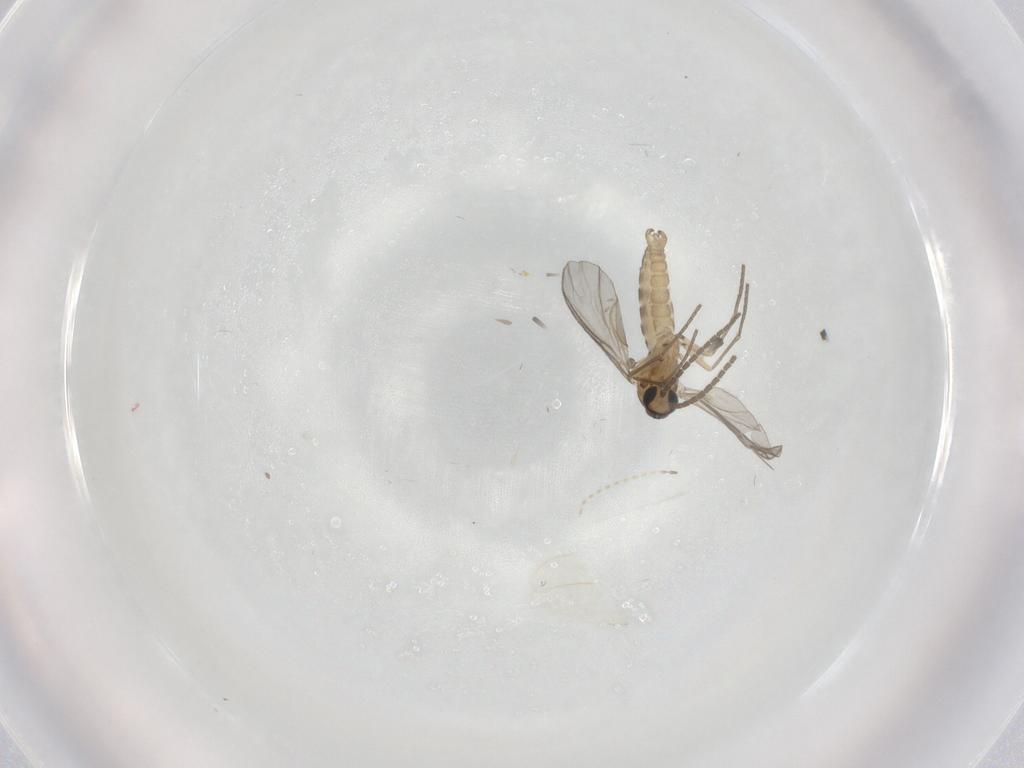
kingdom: Animalia
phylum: Arthropoda
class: Insecta
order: Diptera
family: Sciaridae
